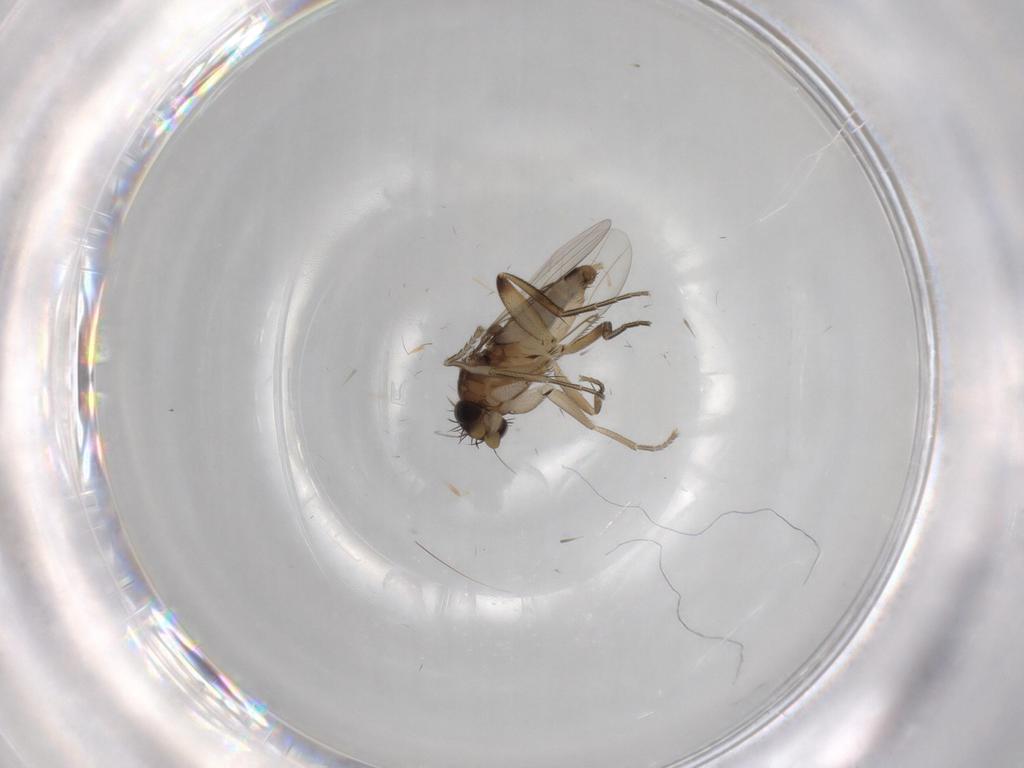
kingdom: Animalia
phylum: Arthropoda
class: Insecta
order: Diptera
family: Phoridae
